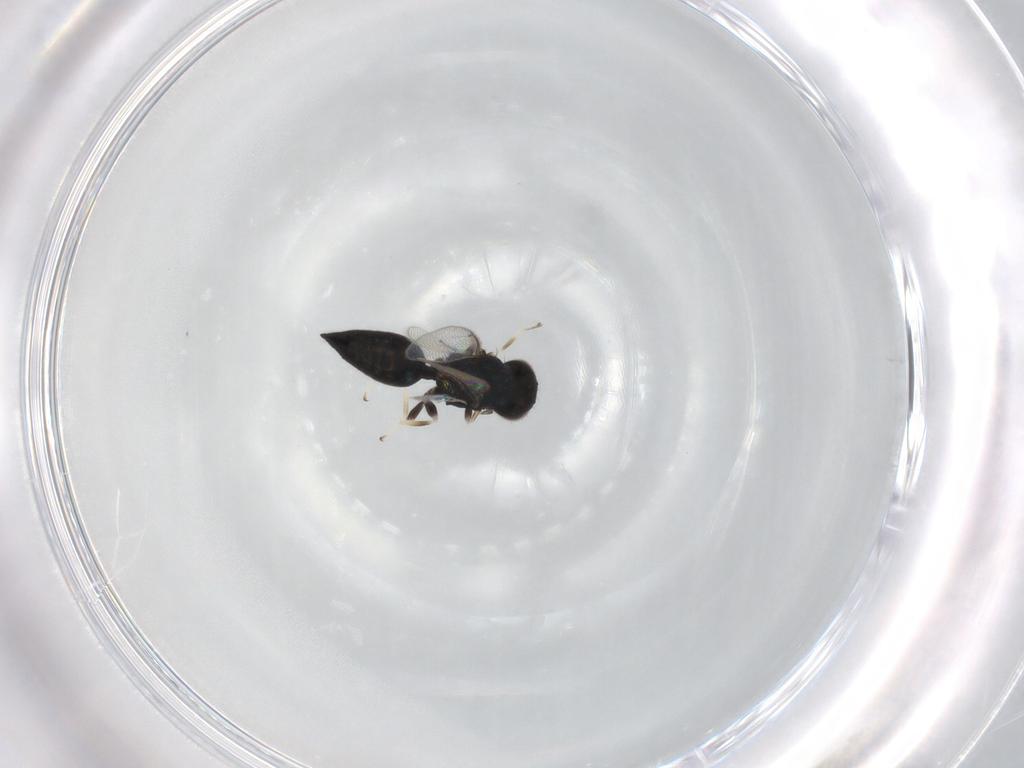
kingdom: Animalia
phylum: Arthropoda
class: Insecta
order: Hymenoptera
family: Eulophidae
